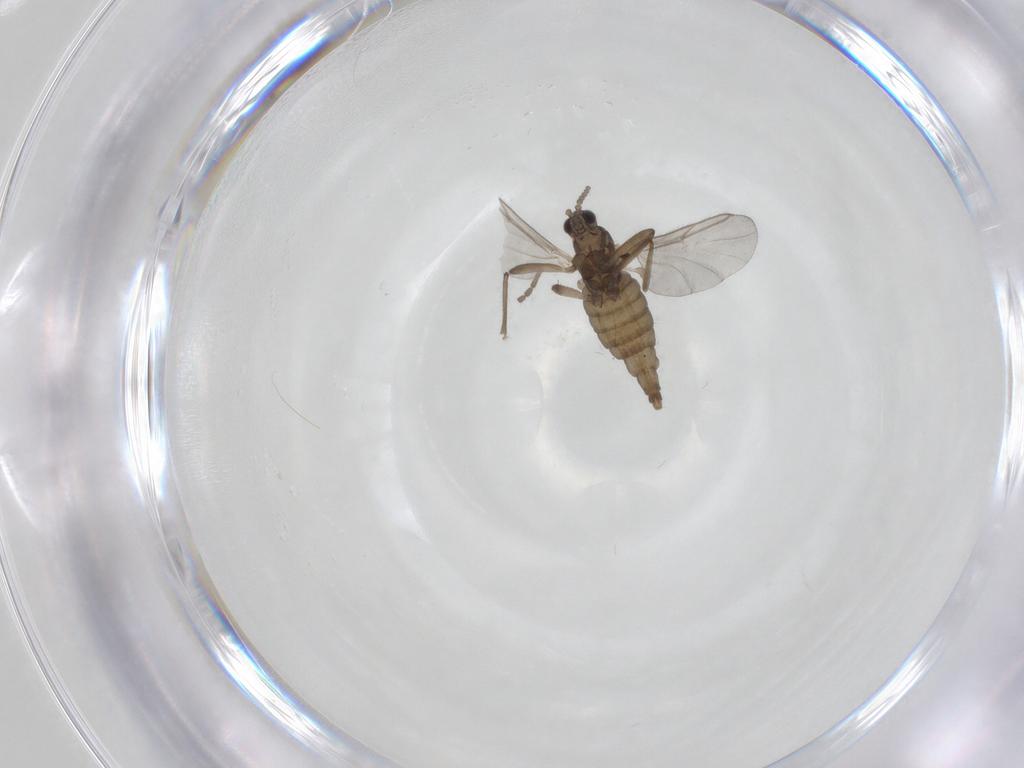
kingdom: Animalia
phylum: Arthropoda
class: Insecta
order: Diptera
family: Cecidomyiidae
